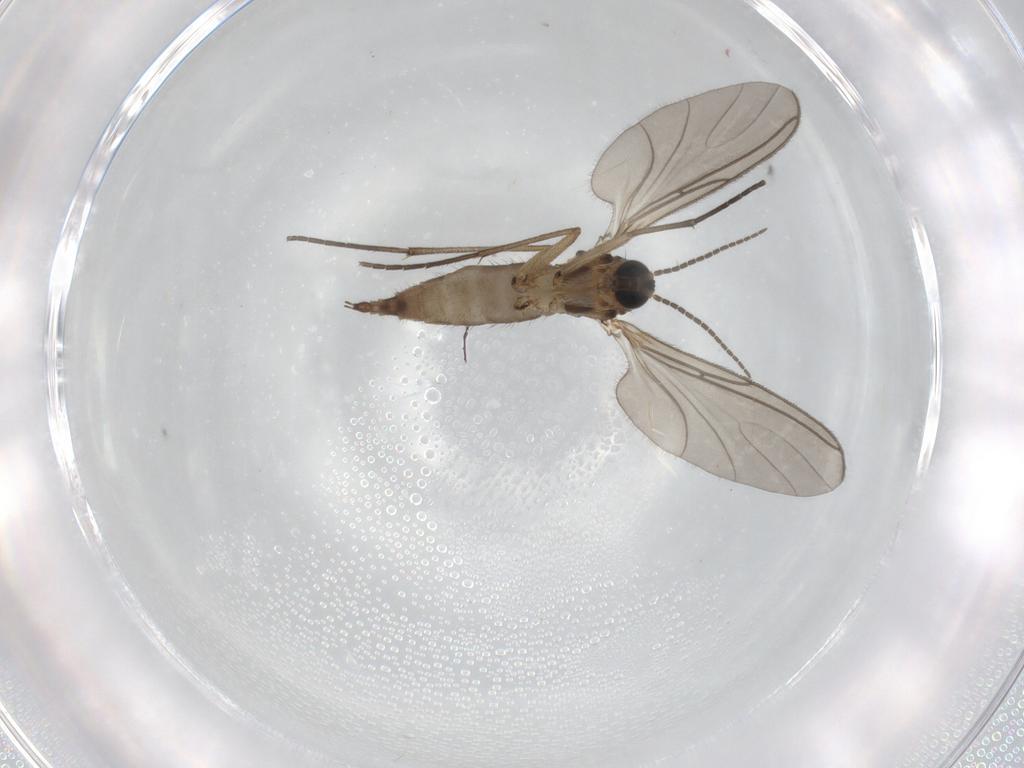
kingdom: Animalia
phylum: Arthropoda
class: Insecta
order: Diptera
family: Sciaridae
